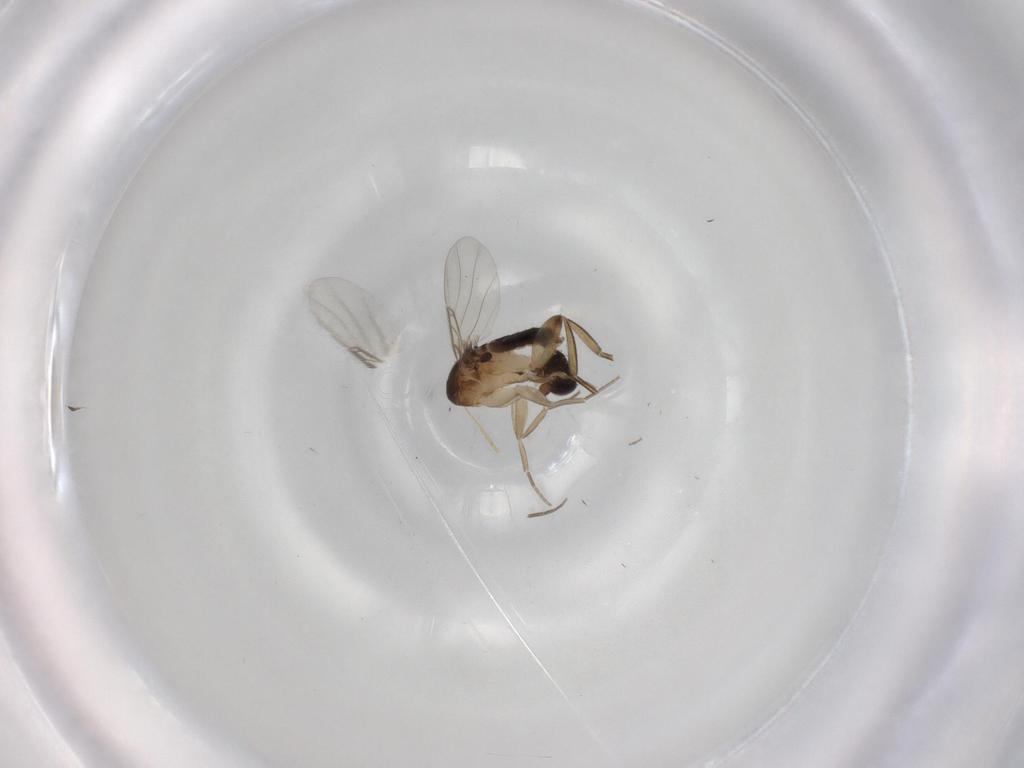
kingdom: Animalia
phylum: Arthropoda
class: Insecta
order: Diptera
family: Phoridae
